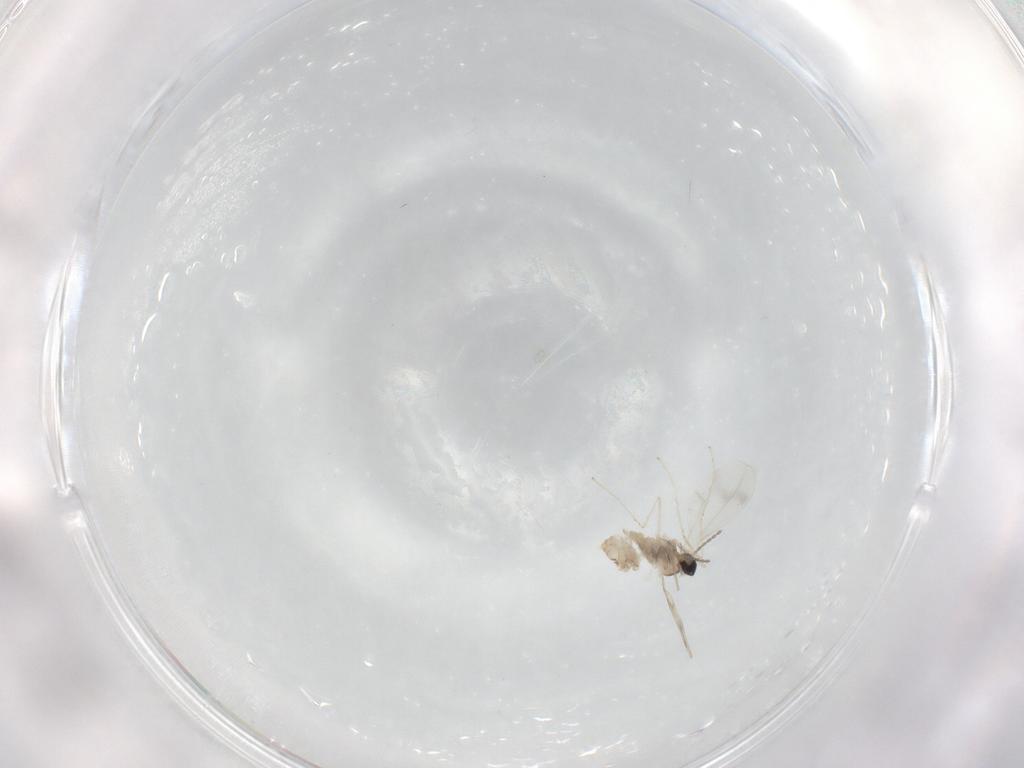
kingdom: Animalia
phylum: Arthropoda
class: Insecta
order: Diptera
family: Cecidomyiidae
